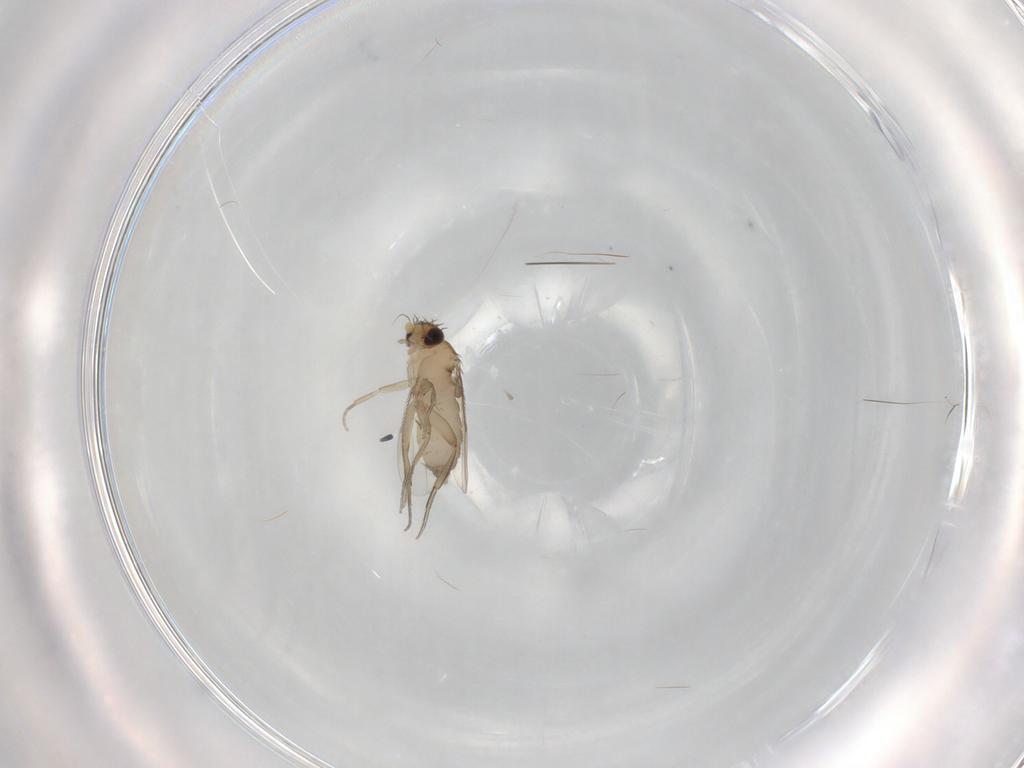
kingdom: Animalia
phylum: Arthropoda
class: Insecta
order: Diptera
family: Phoridae
